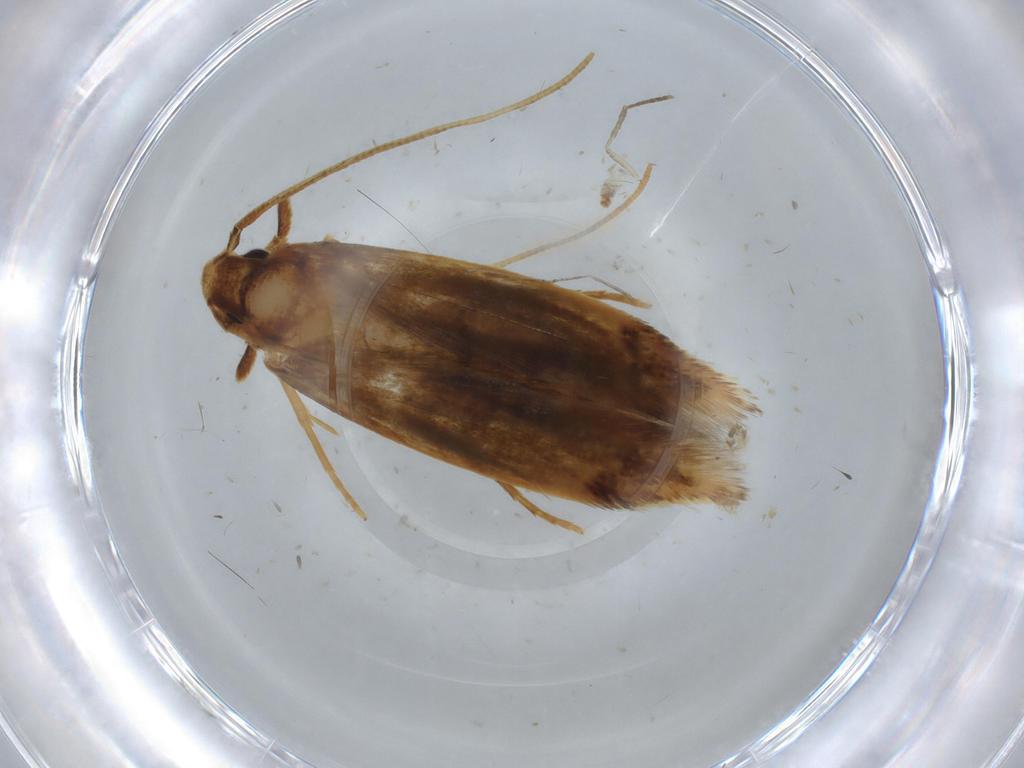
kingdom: Animalia
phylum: Arthropoda
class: Insecta
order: Lepidoptera
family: Tineidae
